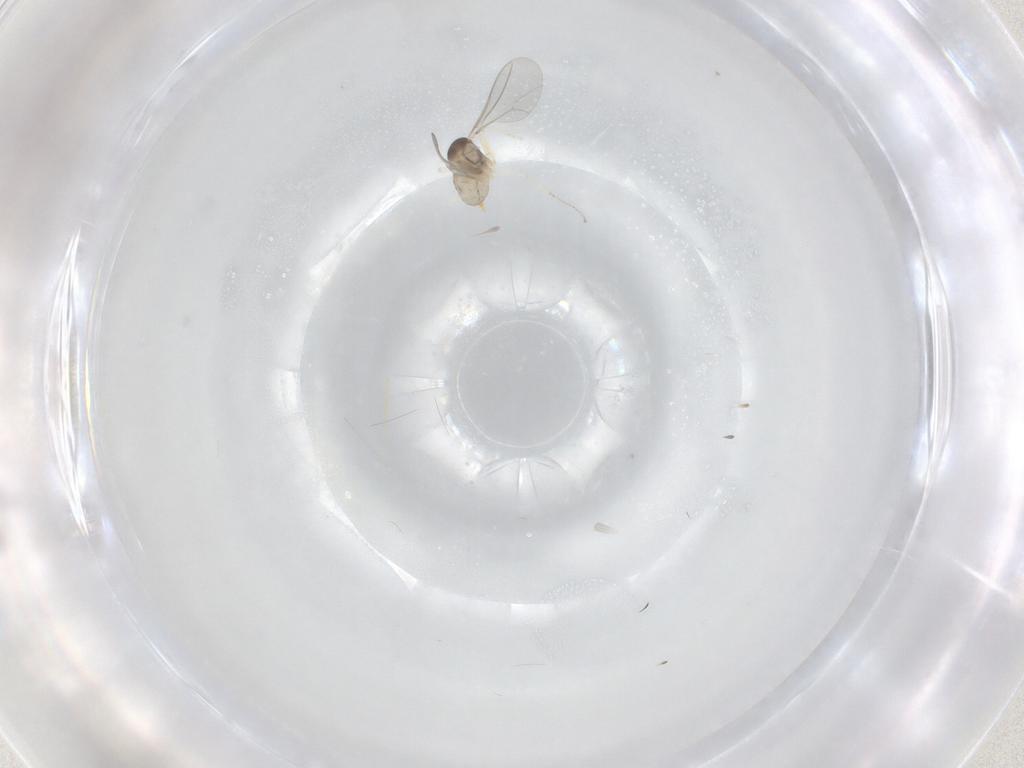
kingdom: Animalia
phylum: Arthropoda
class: Insecta
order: Diptera
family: Cecidomyiidae
